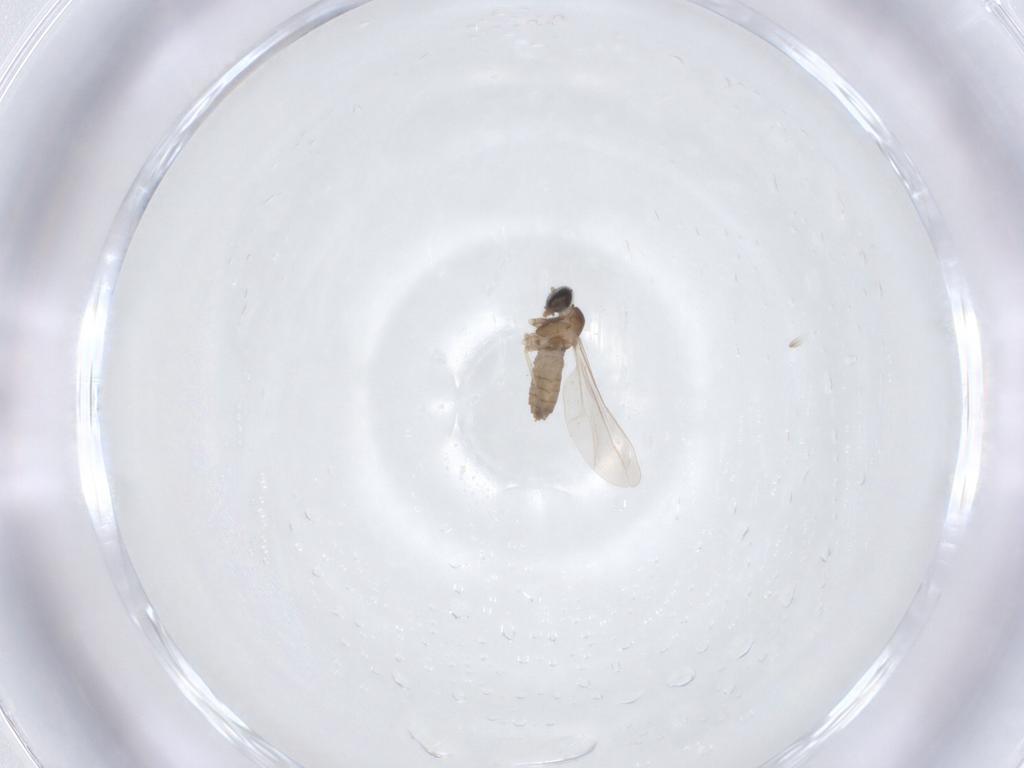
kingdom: Animalia
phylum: Arthropoda
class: Insecta
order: Diptera
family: Cecidomyiidae
